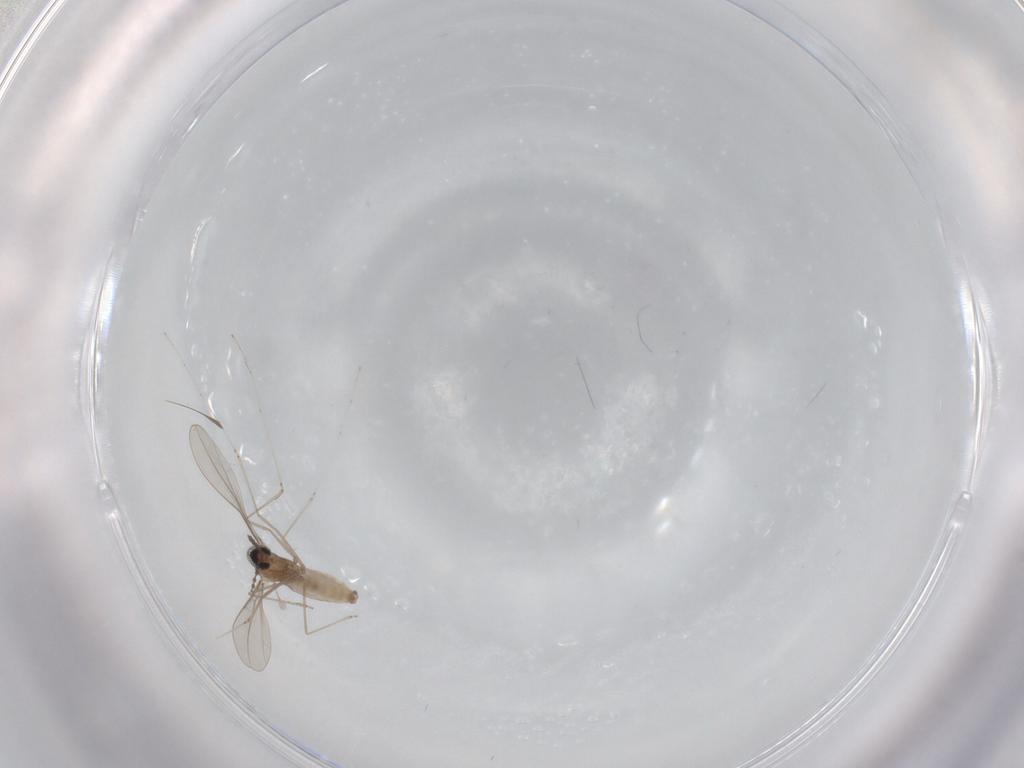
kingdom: Animalia
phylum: Arthropoda
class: Insecta
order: Diptera
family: Cecidomyiidae
